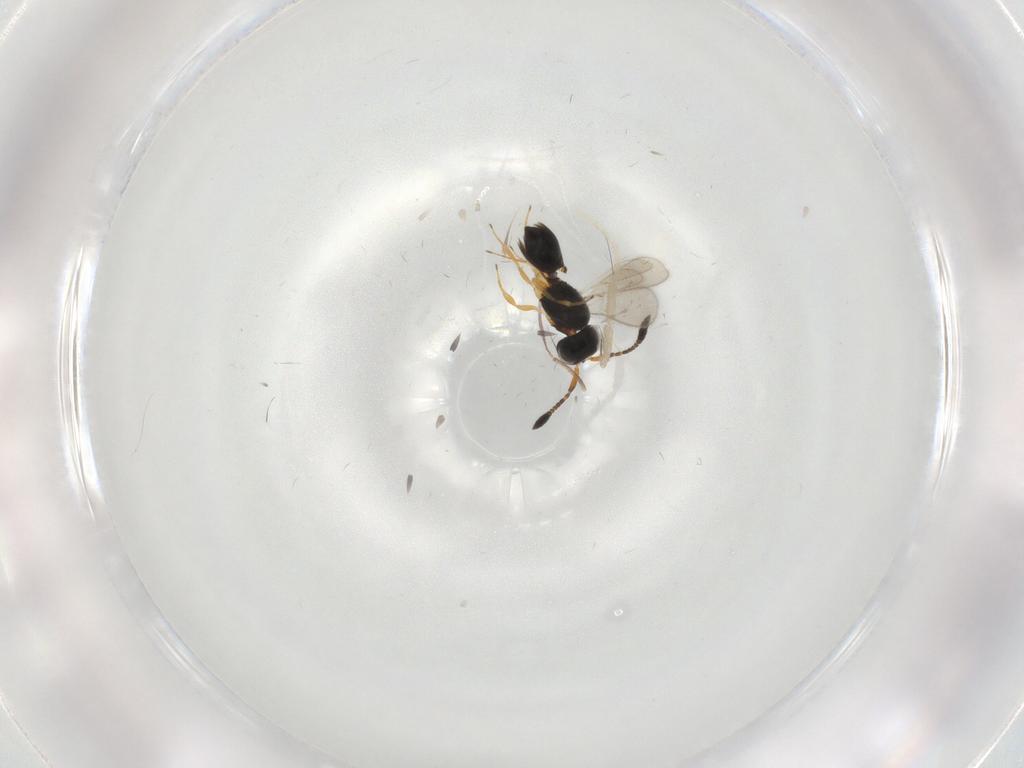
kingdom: Animalia
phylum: Arthropoda
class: Insecta
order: Hymenoptera
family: Scelionidae
